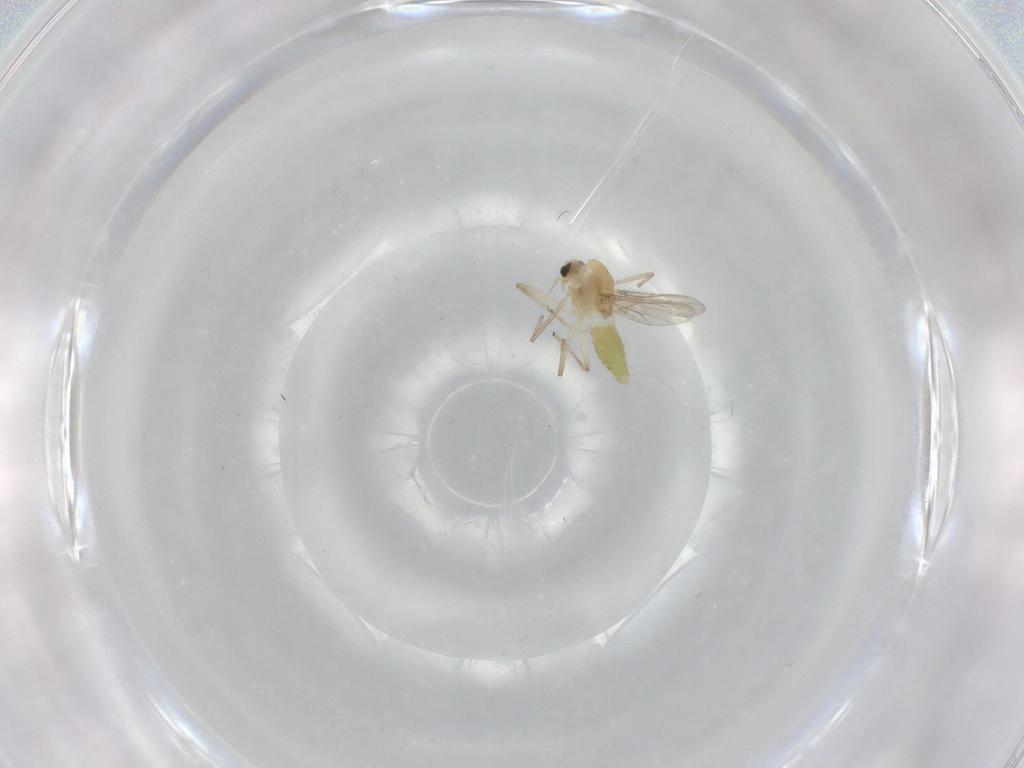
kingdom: Animalia
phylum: Arthropoda
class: Insecta
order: Diptera
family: Chironomidae
